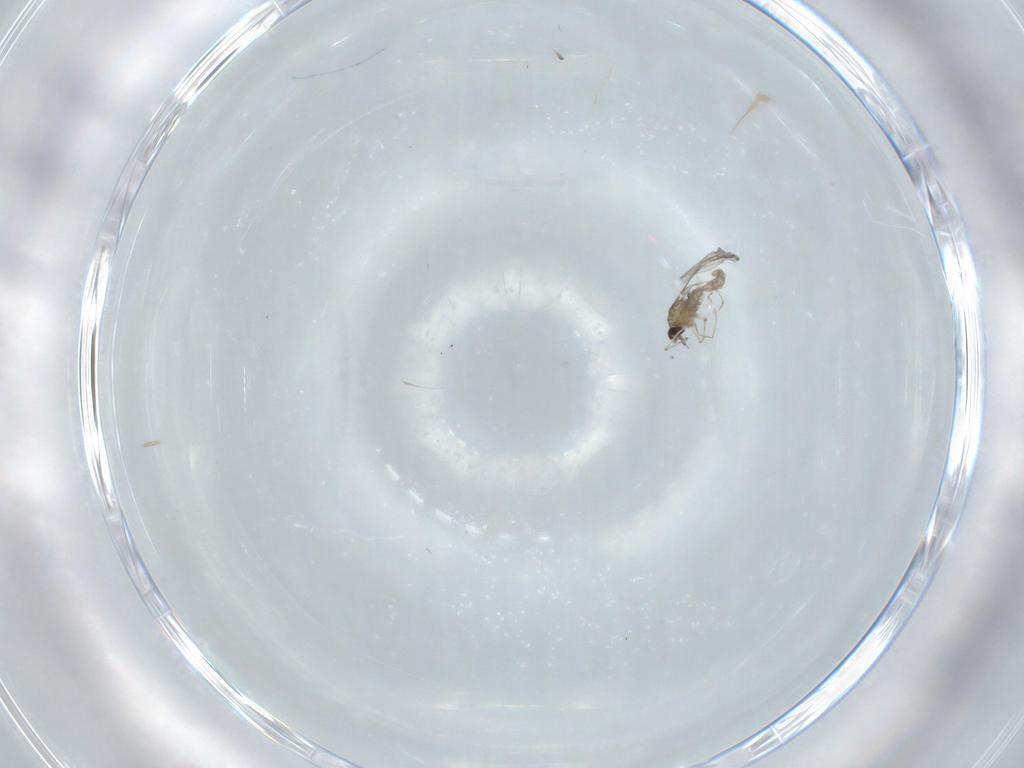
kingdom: Animalia
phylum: Arthropoda
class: Insecta
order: Diptera
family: Cecidomyiidae
